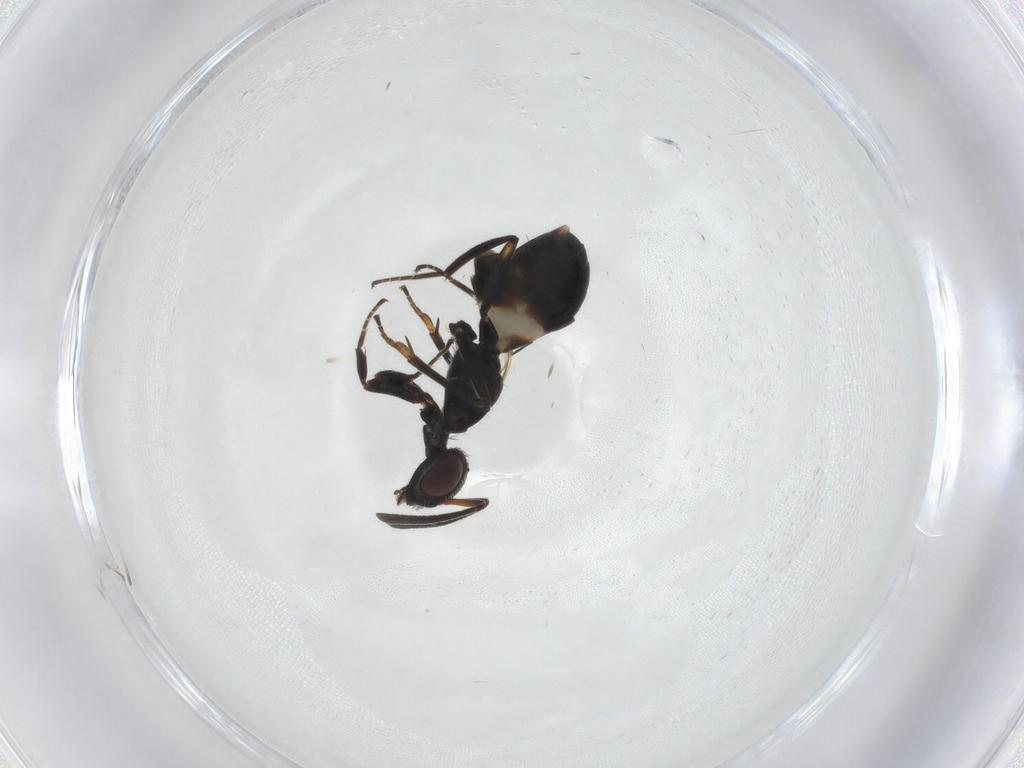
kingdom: Animalia
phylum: Arthropoda
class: Insecta
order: Hymenoptera
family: Eupelmidae
